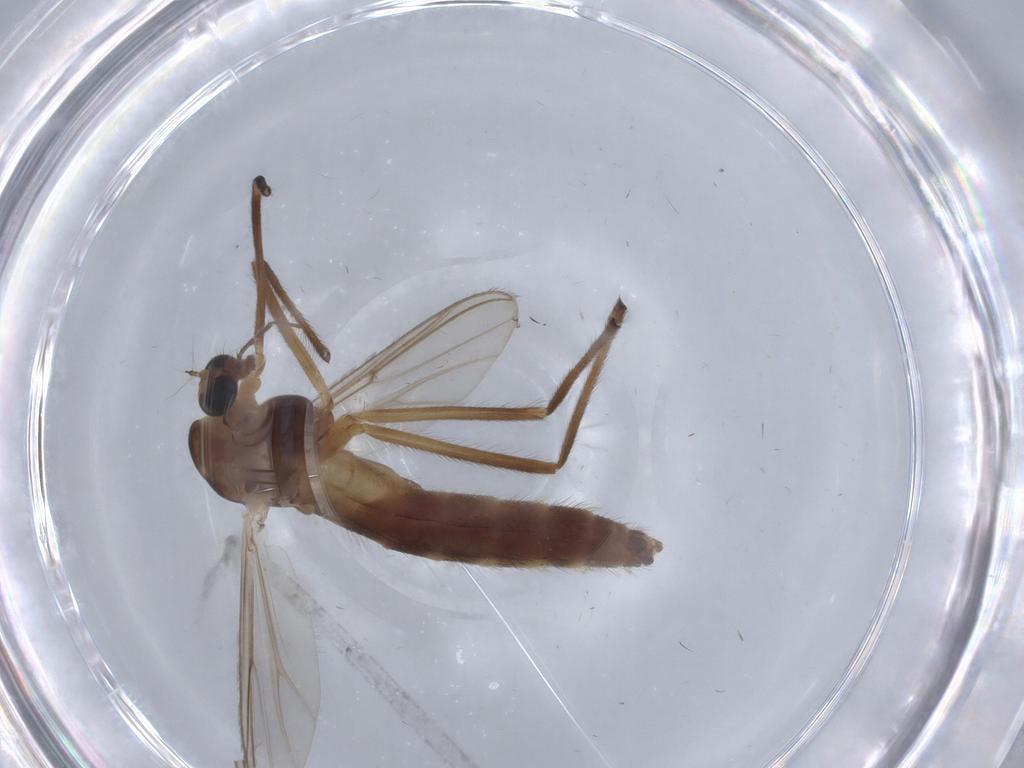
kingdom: Animalia
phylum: Arthropoda
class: Insecta
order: Diptera
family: Chironomidae
